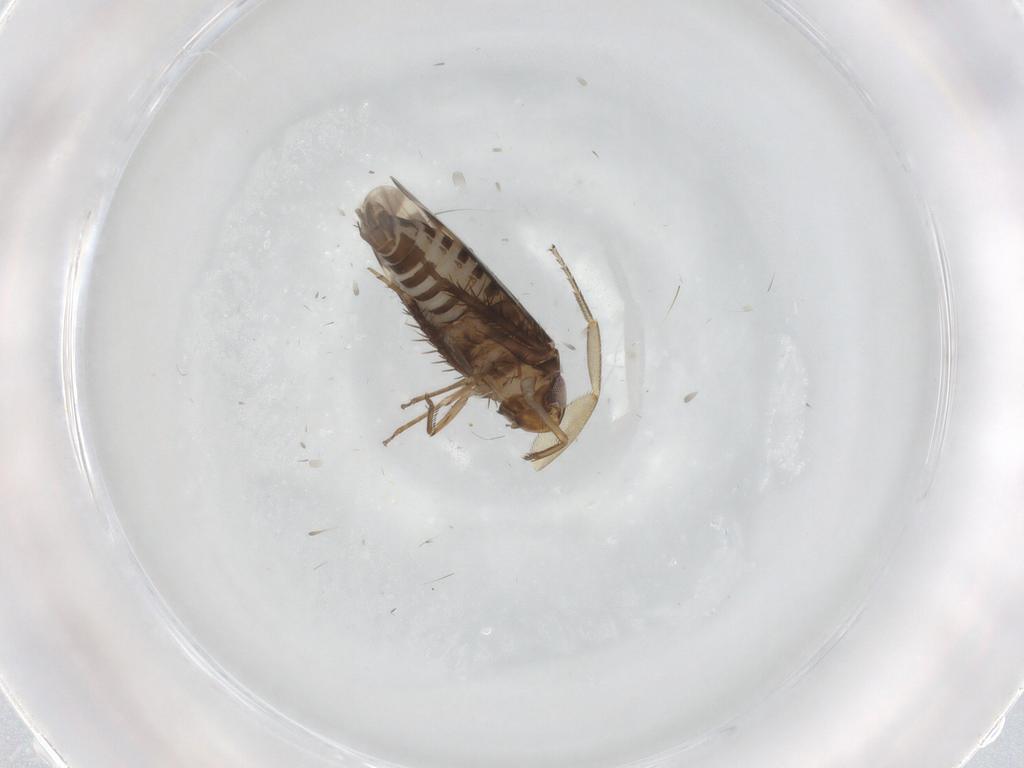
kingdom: Animalia
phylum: Arthropoda
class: Insecta
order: Hemiptera
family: Cicadellidae
